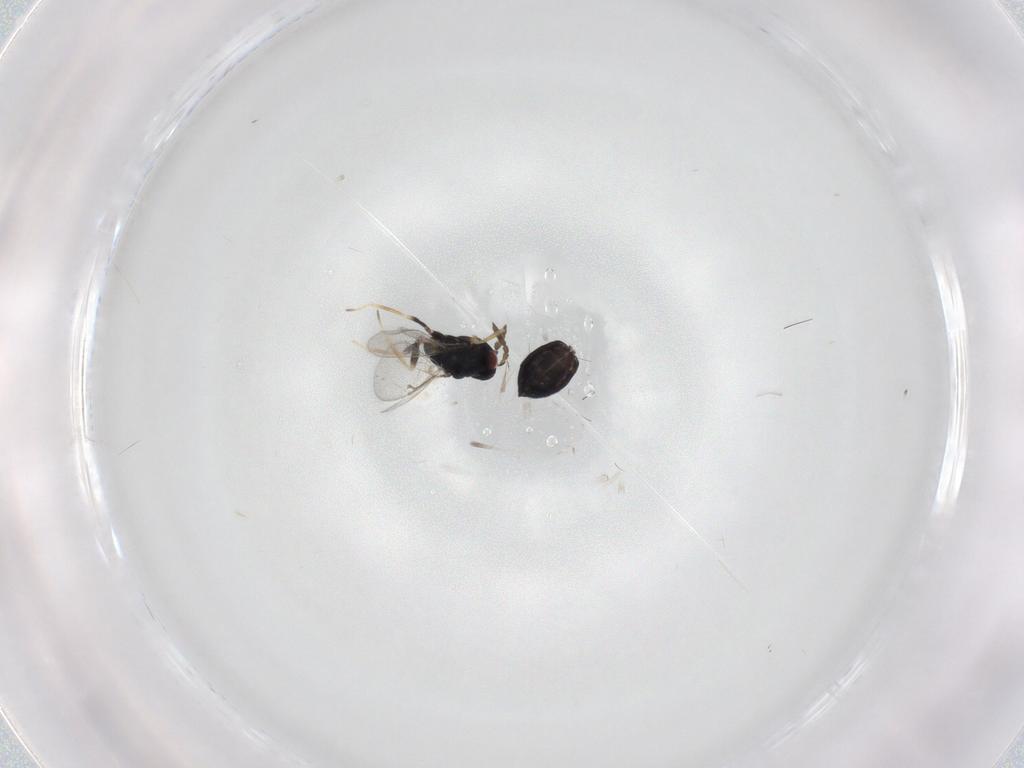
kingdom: Animalia
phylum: Arthropoda
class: Insecta
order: Hymenoptera
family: Eulophidae
